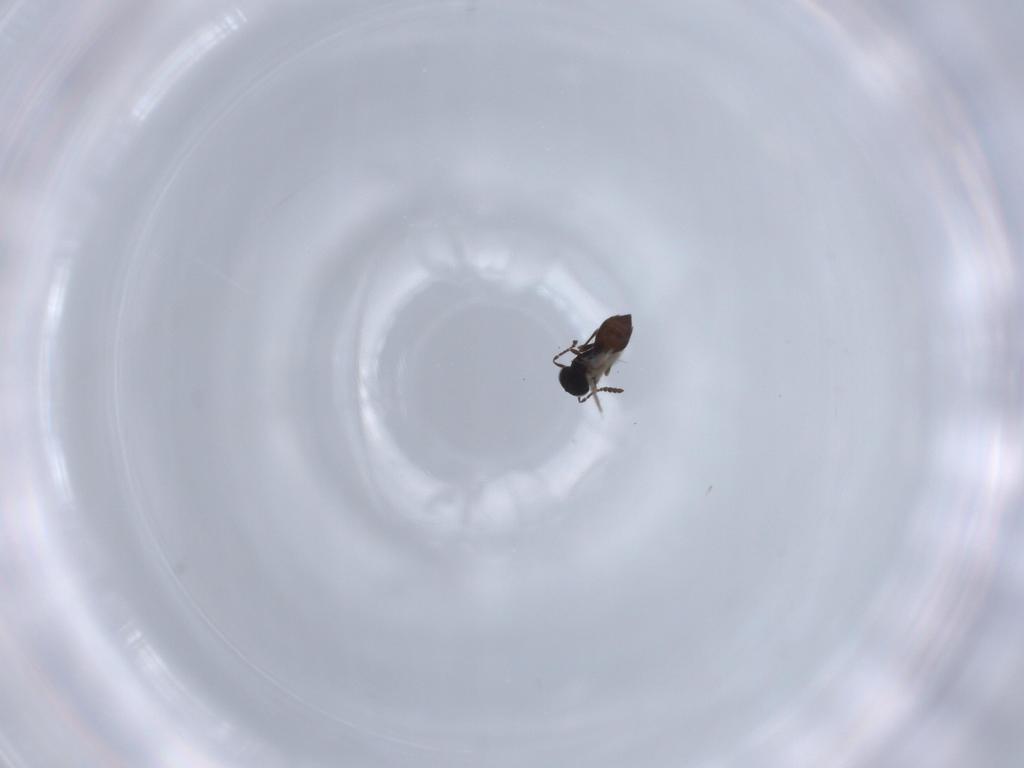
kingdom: Animalia
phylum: Arthropoda
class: Insecta
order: Hymenoptera
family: Scelionidae
